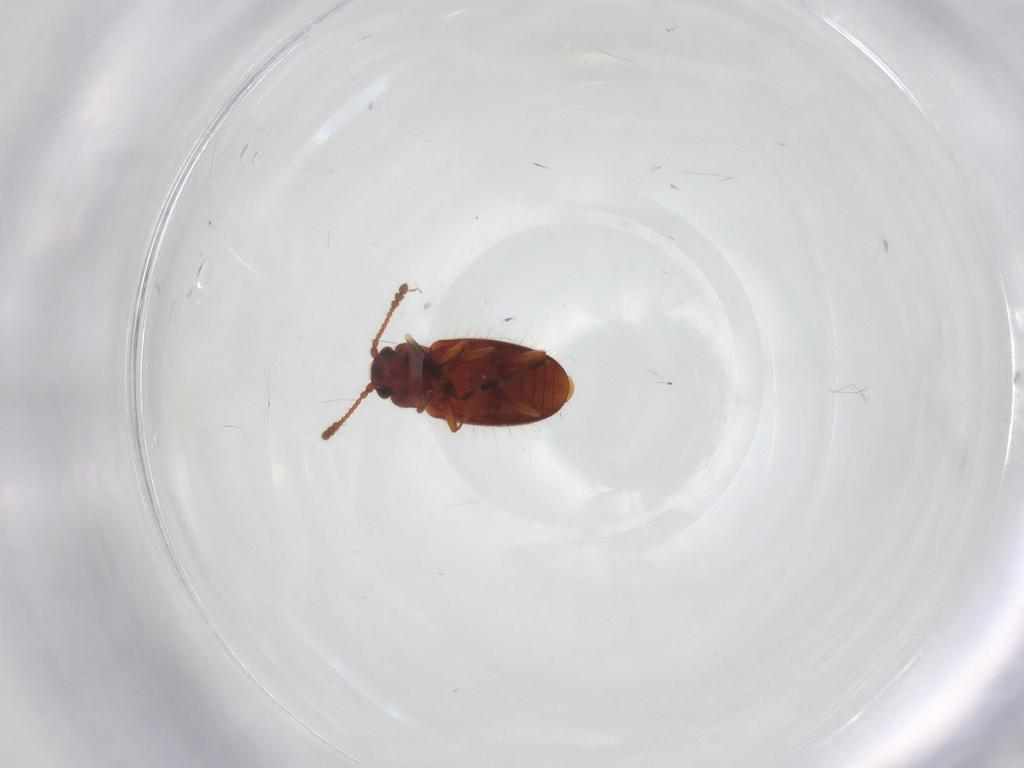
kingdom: Animalia
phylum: Arthropoda
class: Insecta
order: Coleoptera
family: Cryptophagidae
